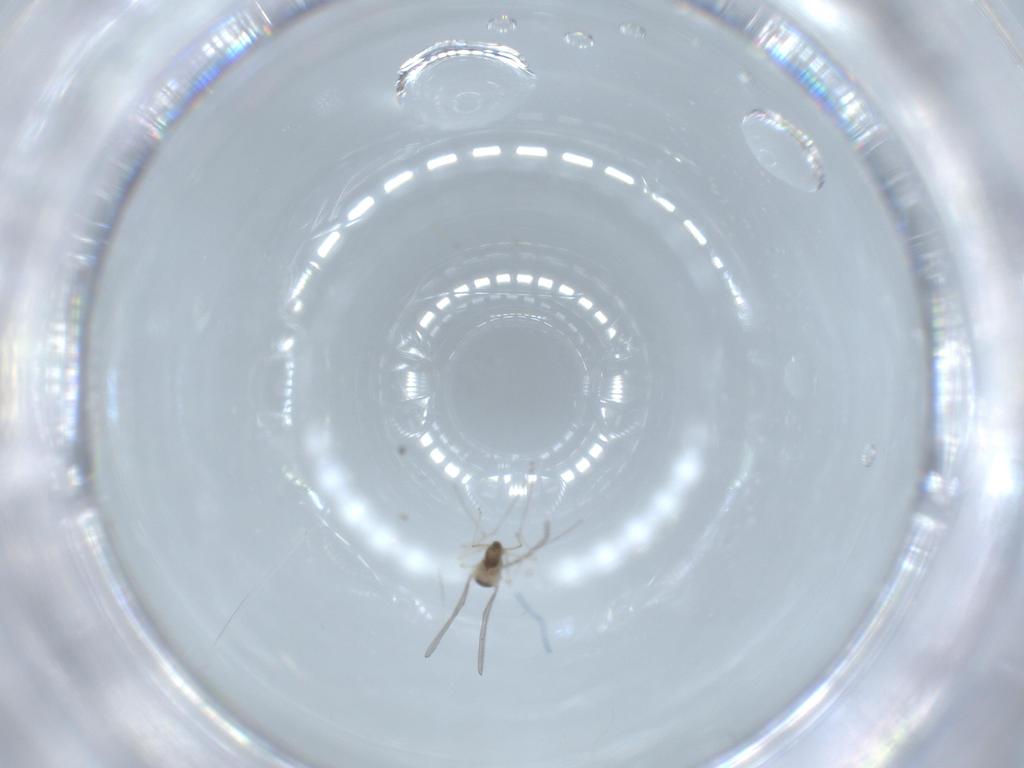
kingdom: Animalia
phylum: Arthropoda
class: Insecta
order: Diptera
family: Cecidomyiidae
